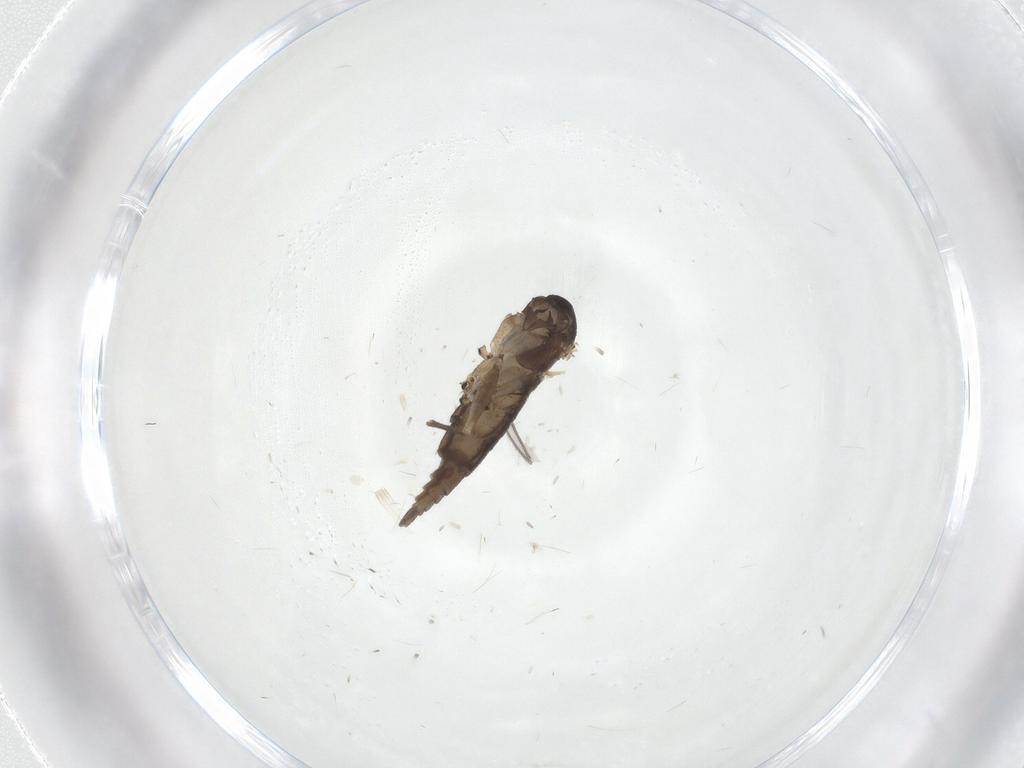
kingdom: Animalia
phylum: Arthropoda
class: Insecta
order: Diptera
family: Sciaridae
